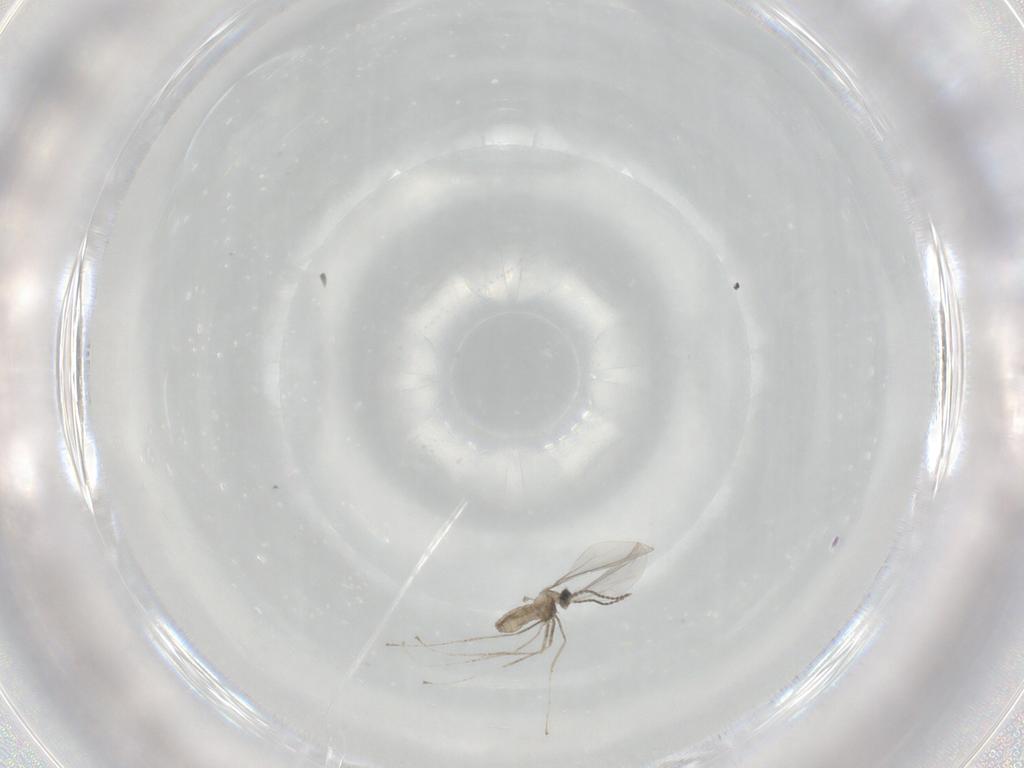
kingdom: Animalia
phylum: Arthropoda
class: Insecta
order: Diptera
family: Cecidomyiidae
